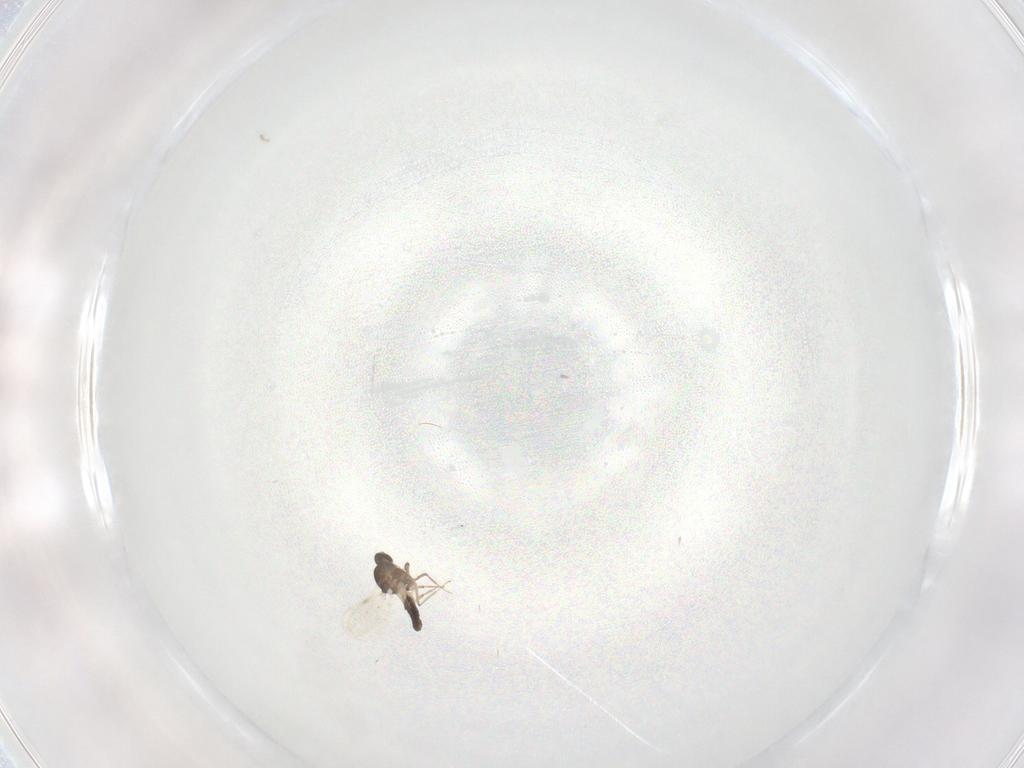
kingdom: Animalia
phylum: Arthropoda
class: Insecta
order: Diptera
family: Ceratopogonidae
